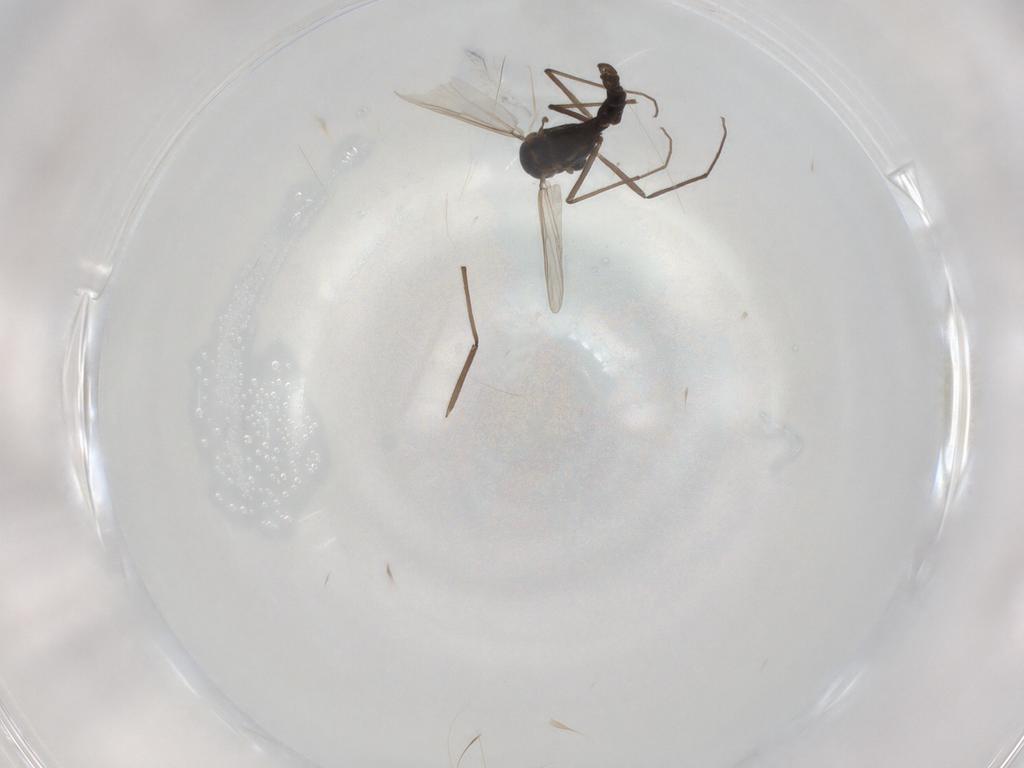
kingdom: Animalia
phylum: Arthropoda
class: Insecta
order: Diptera
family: Chironomidae
